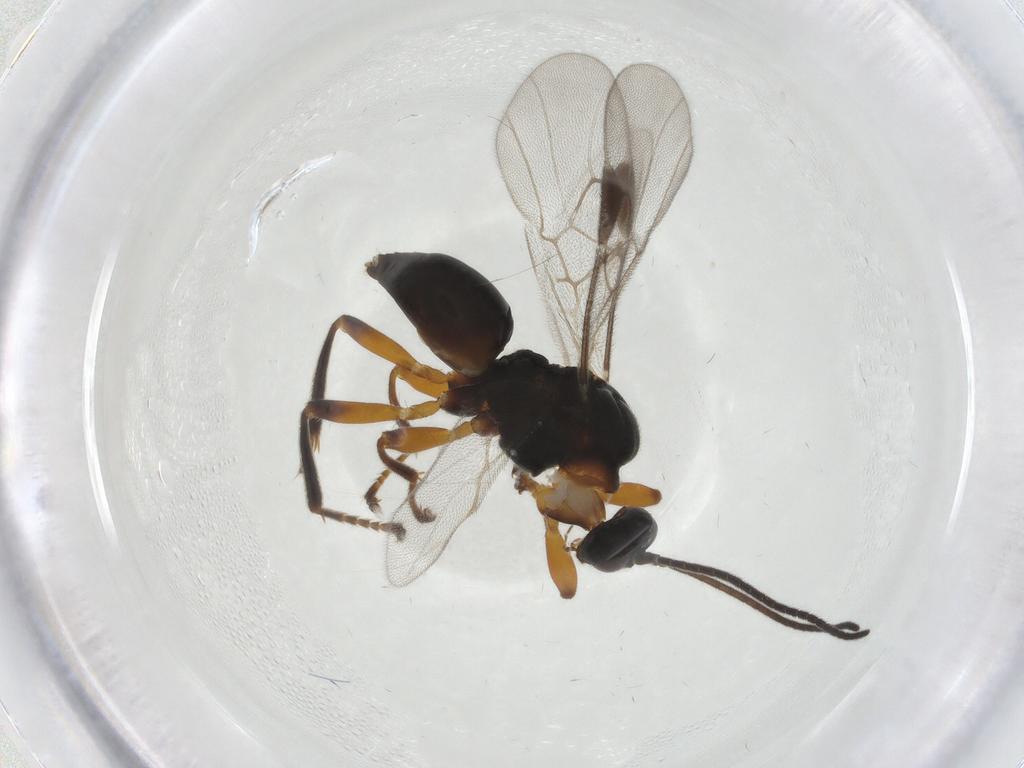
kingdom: Animalia
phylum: Arthropoda
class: Insecta
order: Hymenoptera
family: Braconidae
